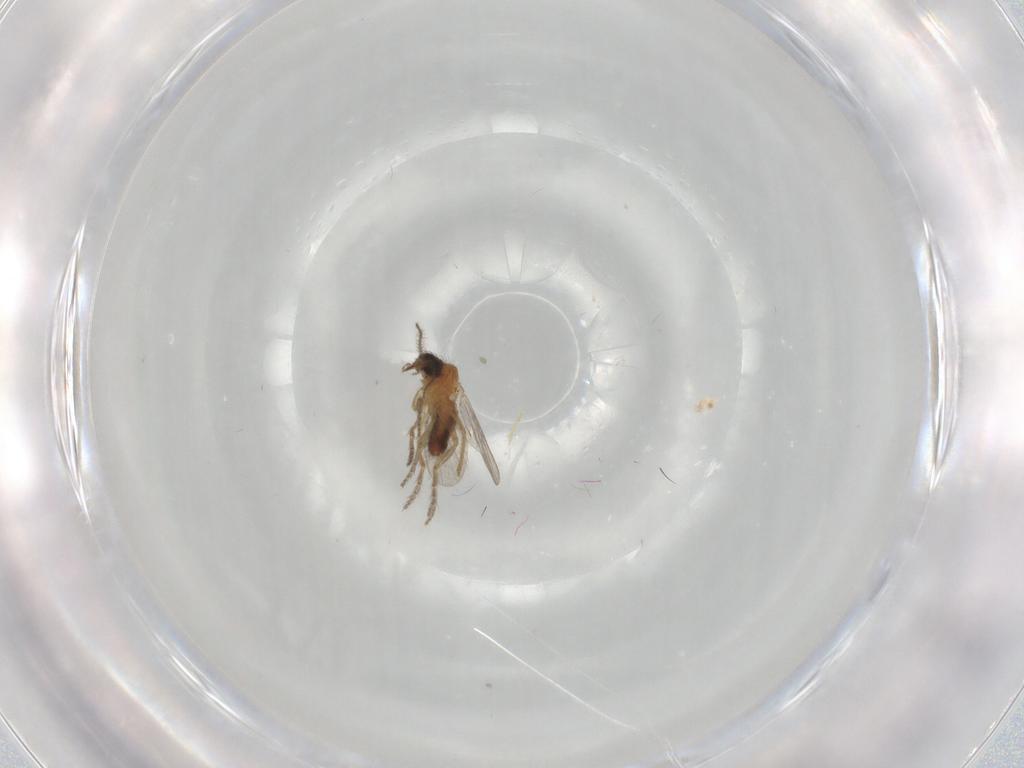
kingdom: Animalia
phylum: Arthropoda
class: Insecta
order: Diptera
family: Ceratopogonidae
